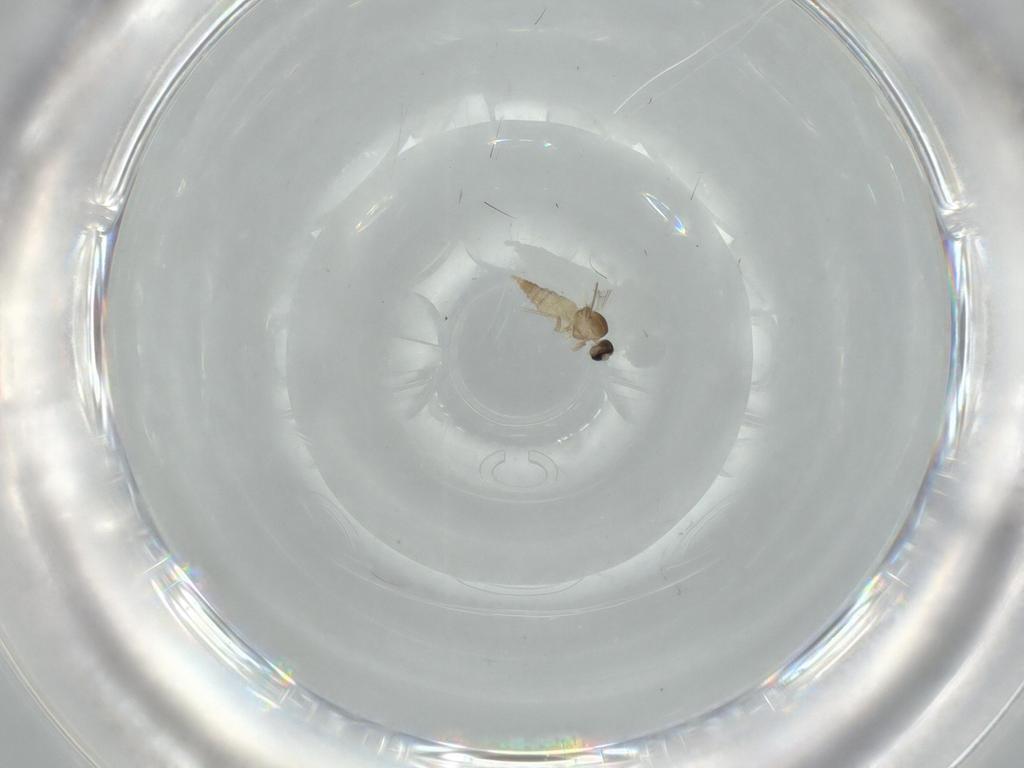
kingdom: Animalia
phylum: Arthropoda
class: Insecta
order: Diptera
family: Cecidomyiidae
